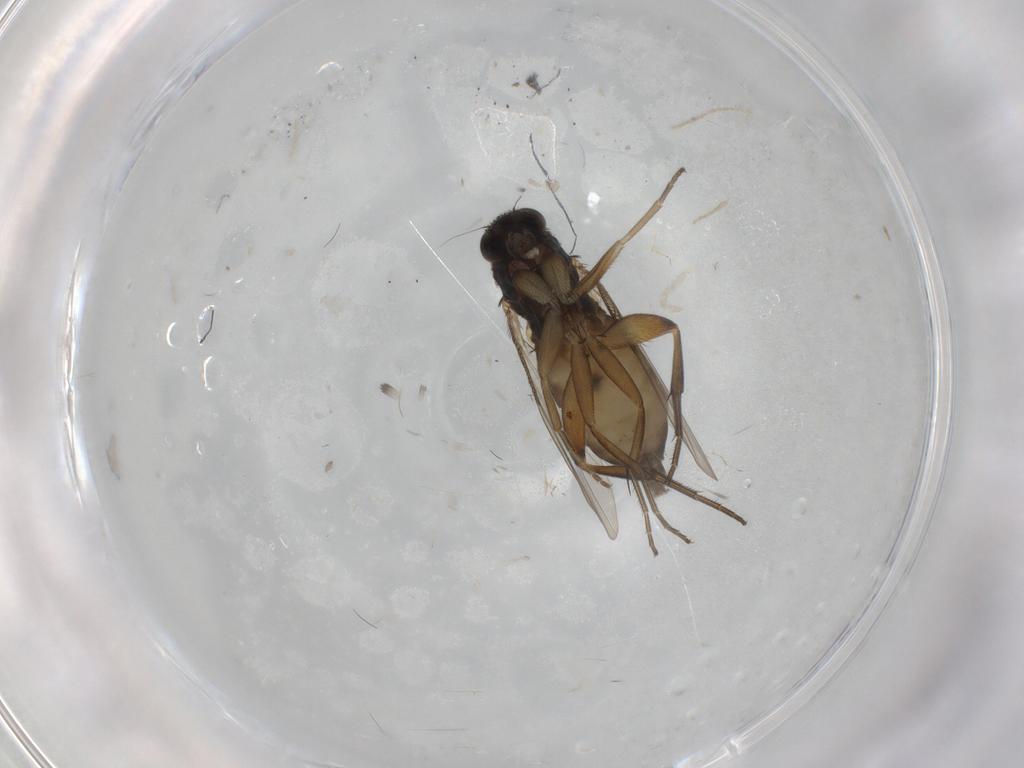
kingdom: Animalia
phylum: Arthropoda
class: Insecta
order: Diptera
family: Phoridae
